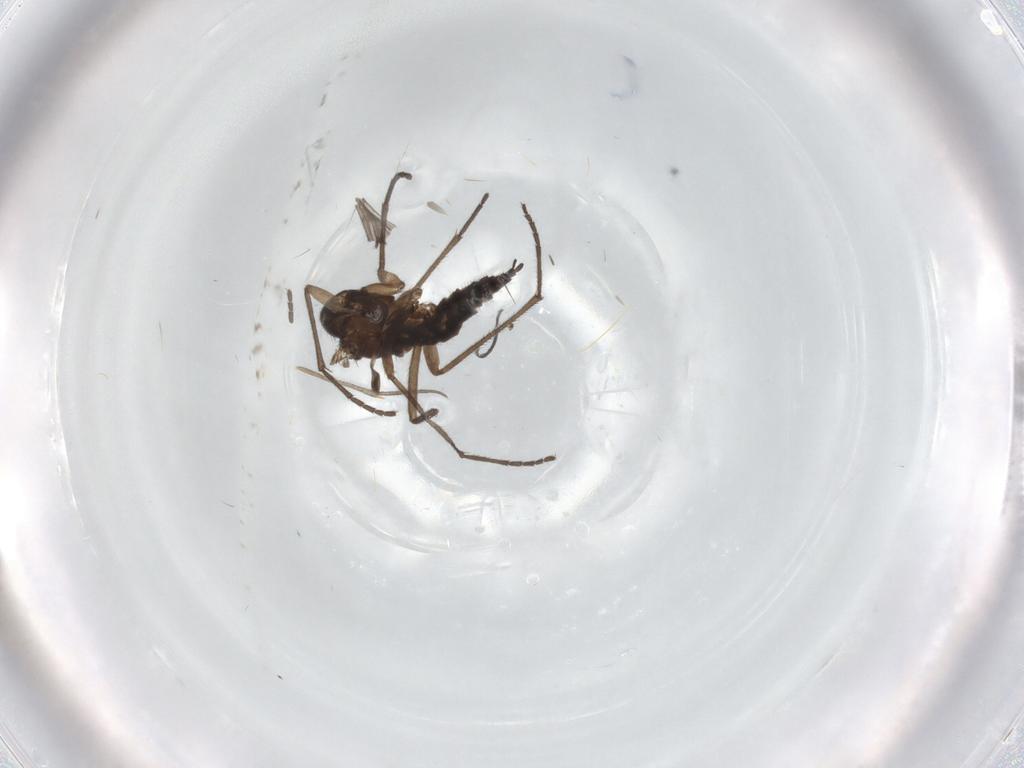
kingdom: Animalia
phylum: Arthropoda
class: Insecta
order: Diptera
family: Sciaridae
